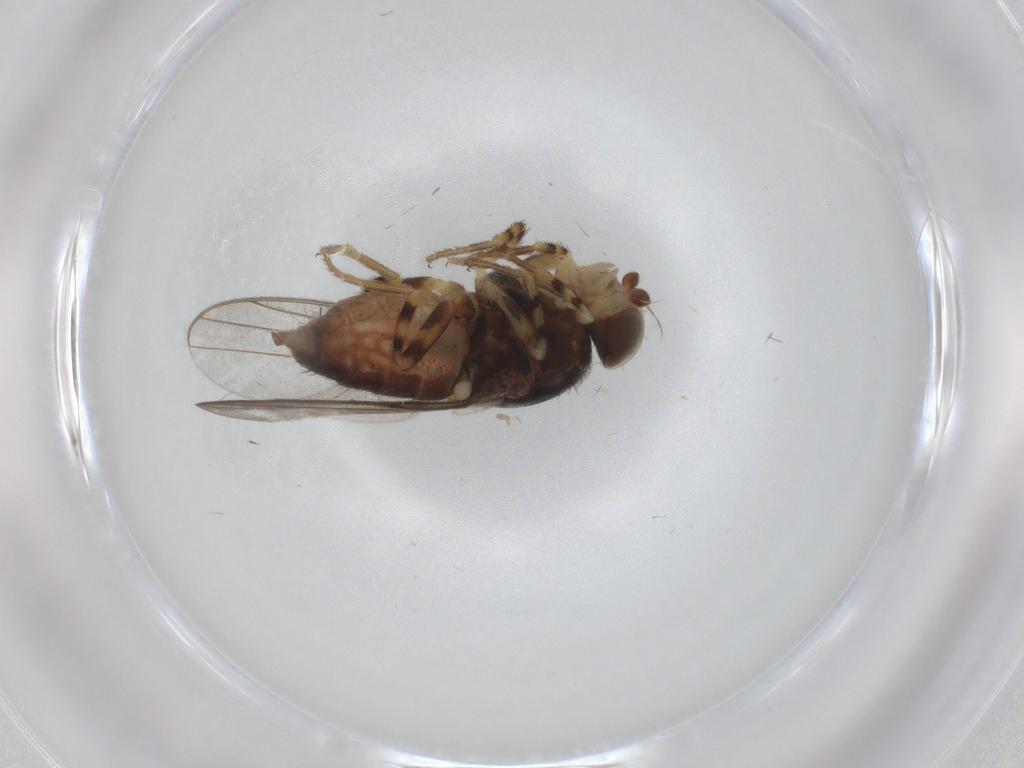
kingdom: Animalia
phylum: Arthropoda
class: Insecta
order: Diptera
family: Chloropidae
